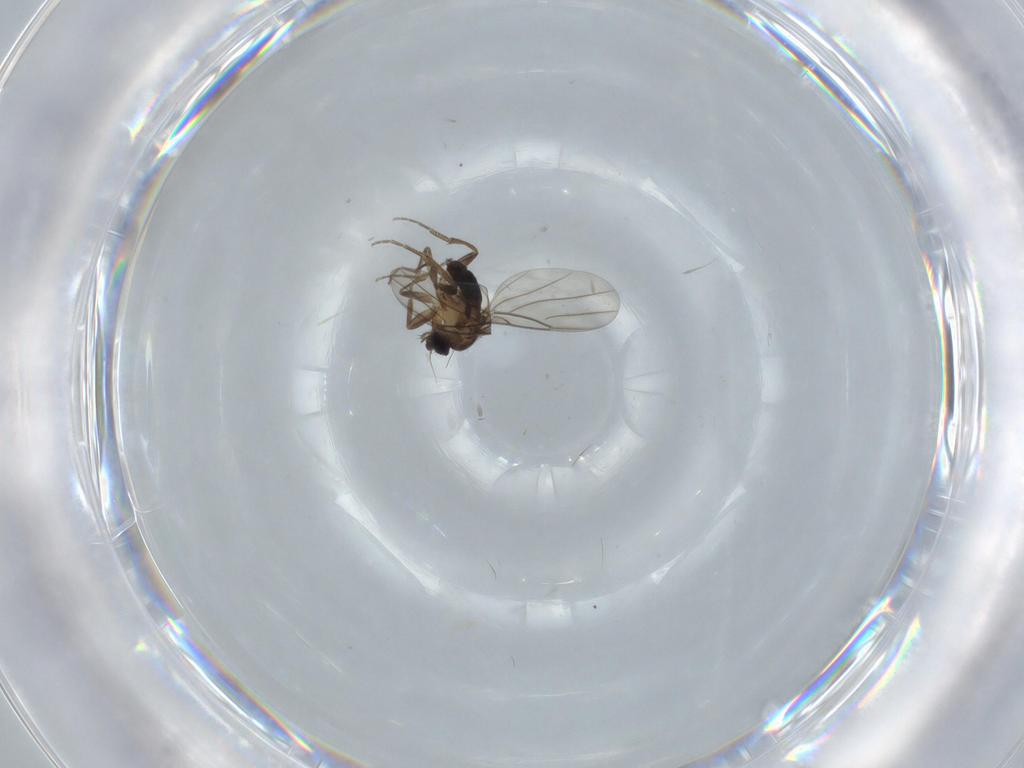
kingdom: Animalia
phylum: Arthropoda
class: Insecta
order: Diptera
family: Phoridae
